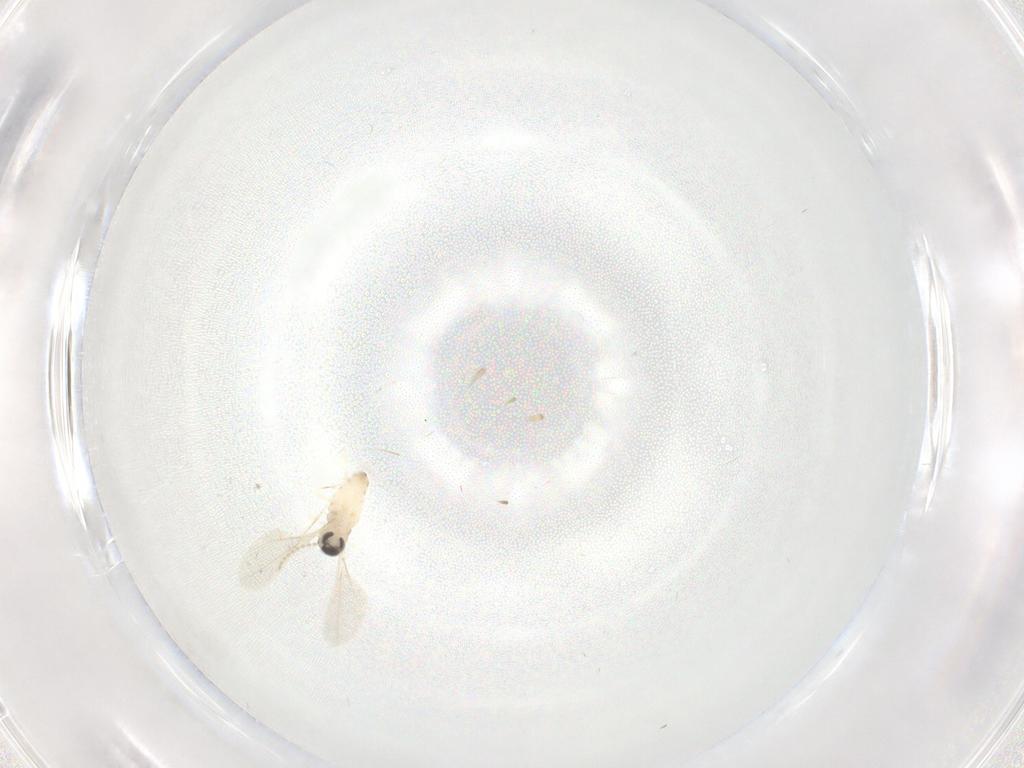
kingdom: Animalia
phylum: Arthropoda
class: Insecta
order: Diptera
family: Cecidomyiidae
